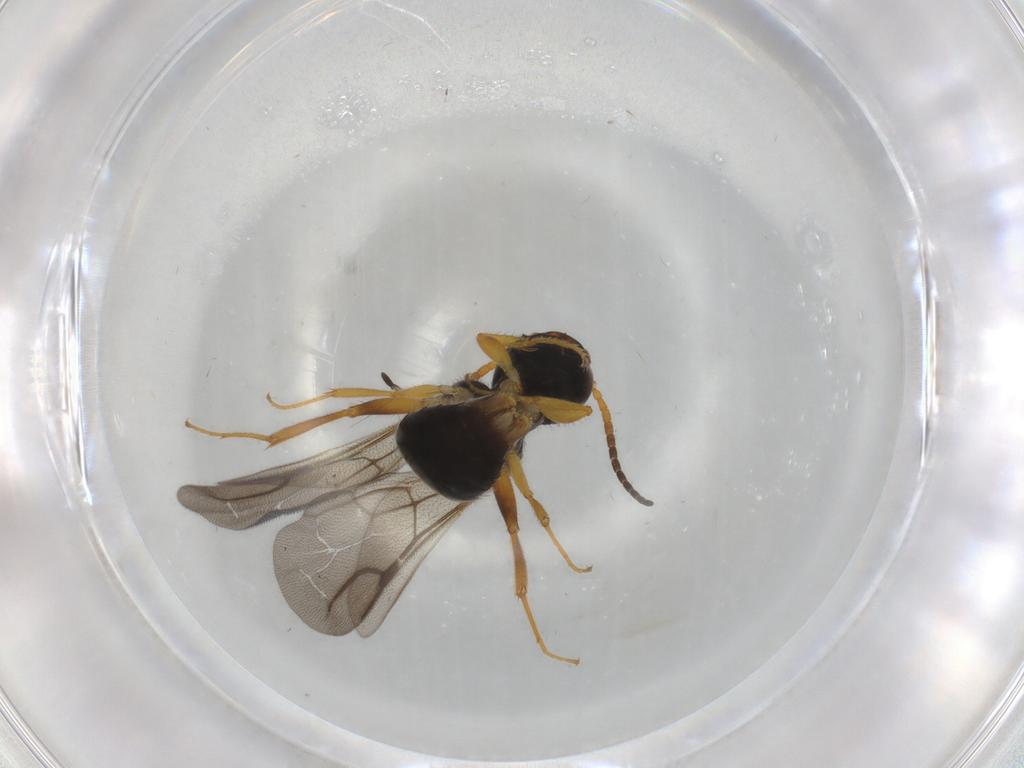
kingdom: Animalia
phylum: Arthropoda
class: Insecta
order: Hymenoptera
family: Bethylidae
